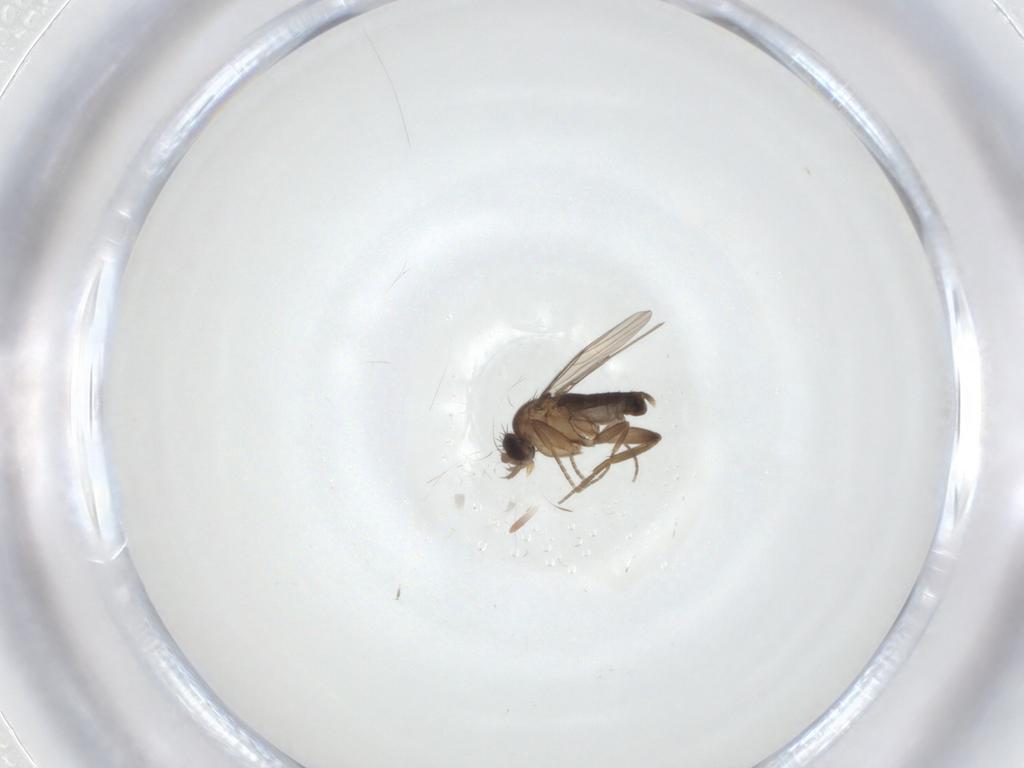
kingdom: Animalia
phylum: Arthropoda
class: Insecta
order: Diptera
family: Phoridae
